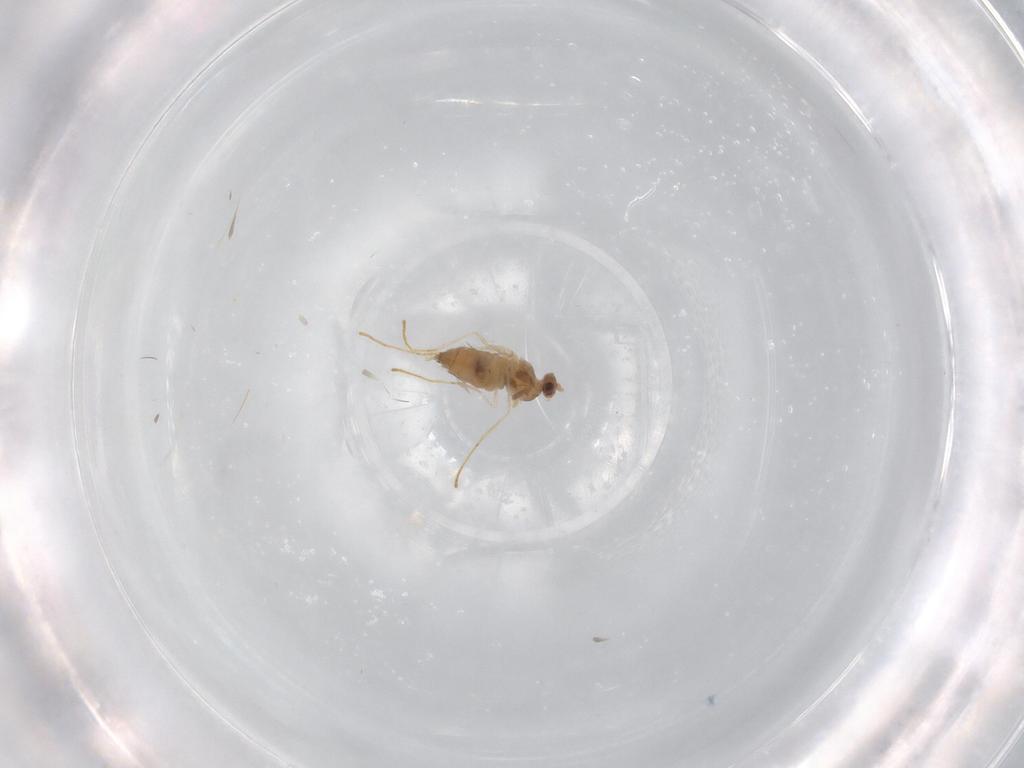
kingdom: Animalia
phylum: Arthropoda
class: Insecta
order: Diptera
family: Cecidomyiidae
